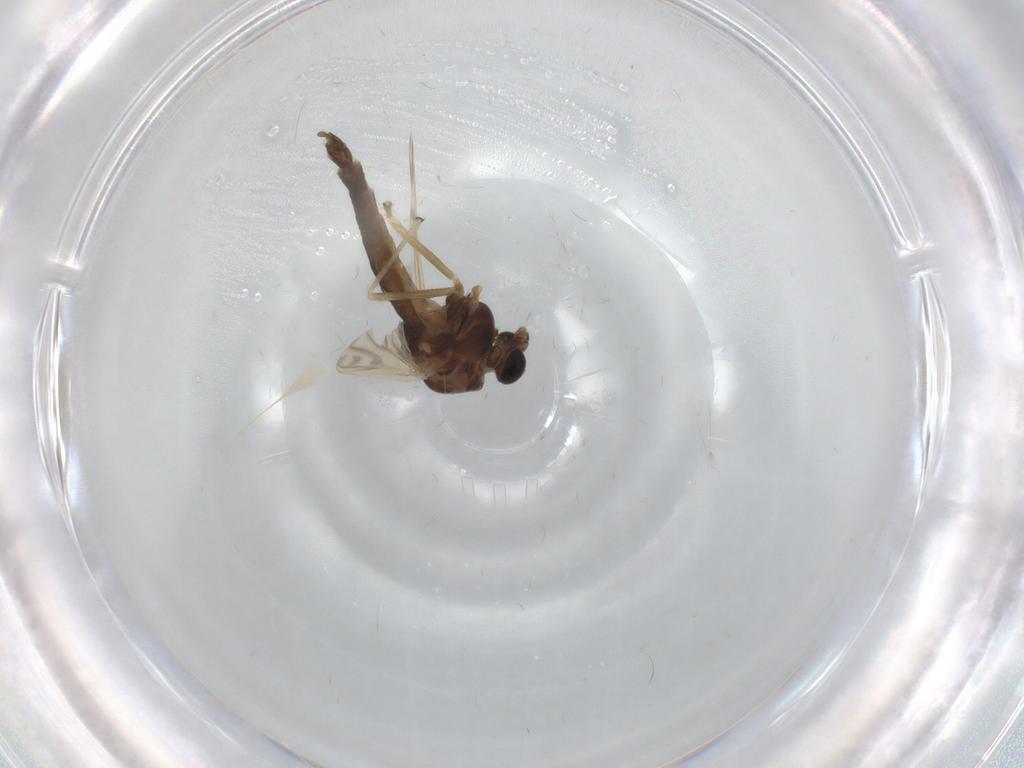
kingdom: Animalia
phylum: Arthropoda
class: Insecta
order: Diptera
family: Chironomidae
